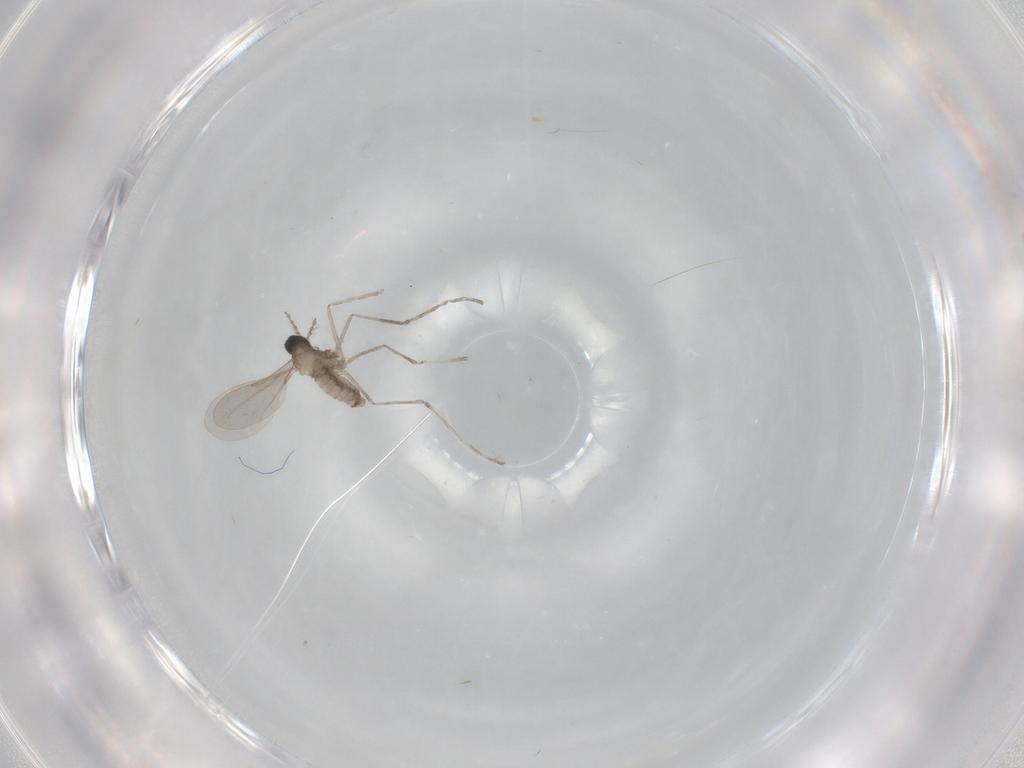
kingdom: Animalia
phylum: Arthropoda
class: Insecta
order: Diptera
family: Cecidomyiidae
